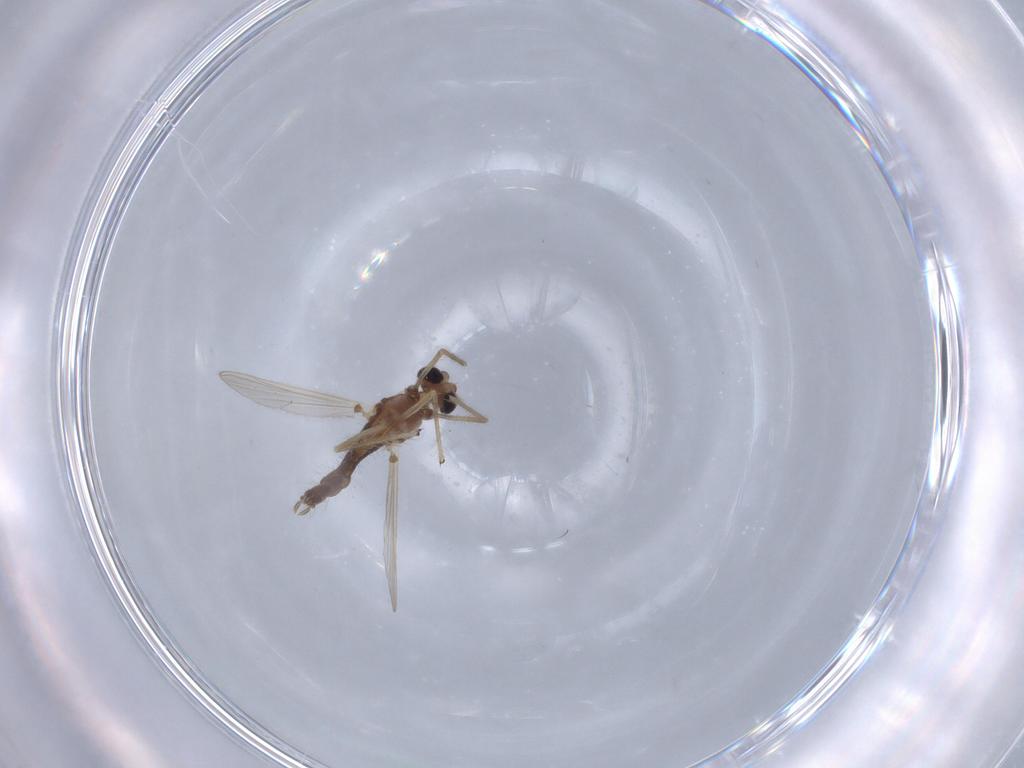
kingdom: Animalia
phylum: Arthropoda
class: Insecta
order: Diptera
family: Chironomidae
